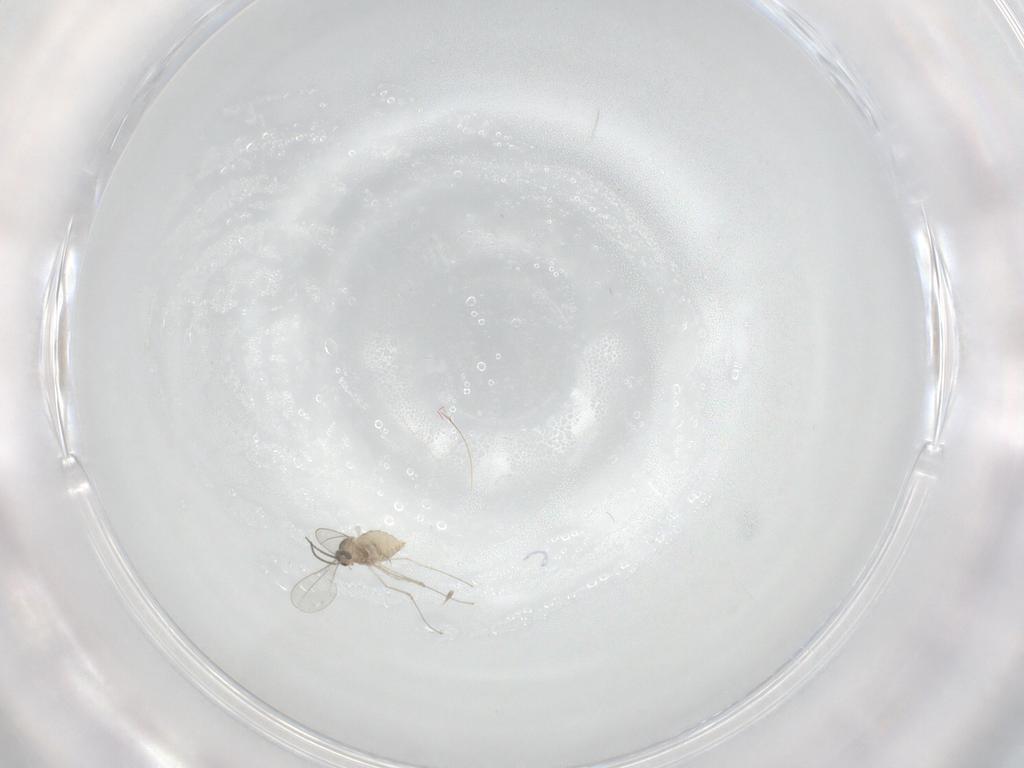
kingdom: Animalia
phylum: Arthropoda
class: Insecta
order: Diptera
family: Cecidomyiidae
